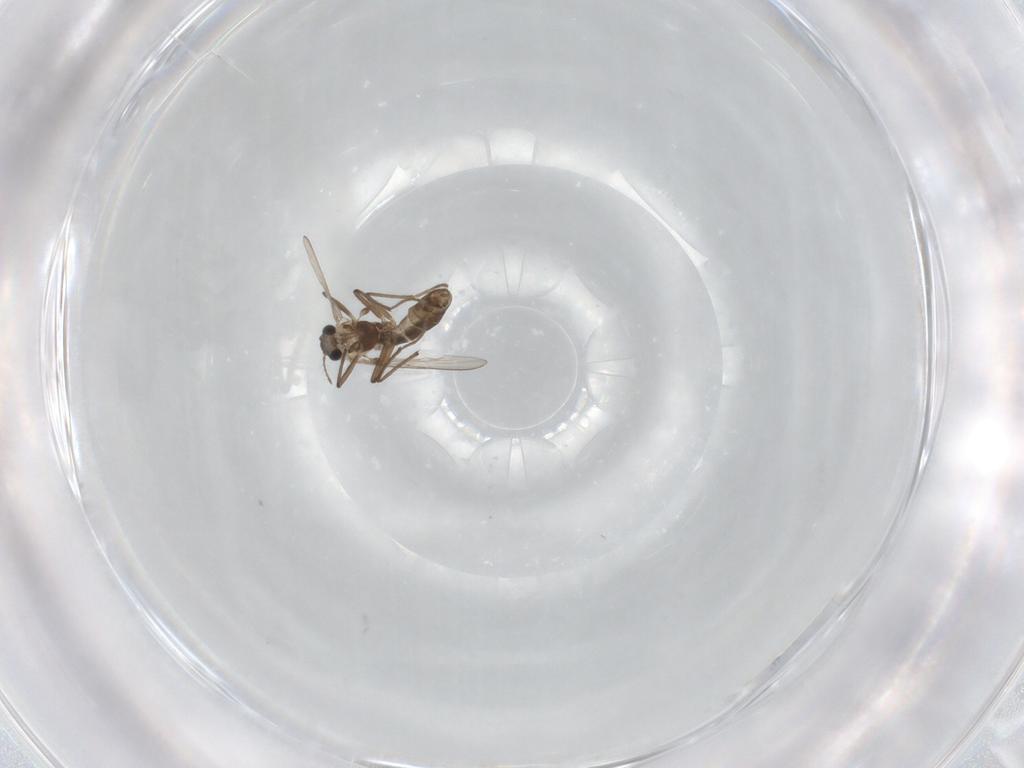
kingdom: Animalia
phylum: Arthropoda
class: Insecta
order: Diptera
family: Chironomidae
